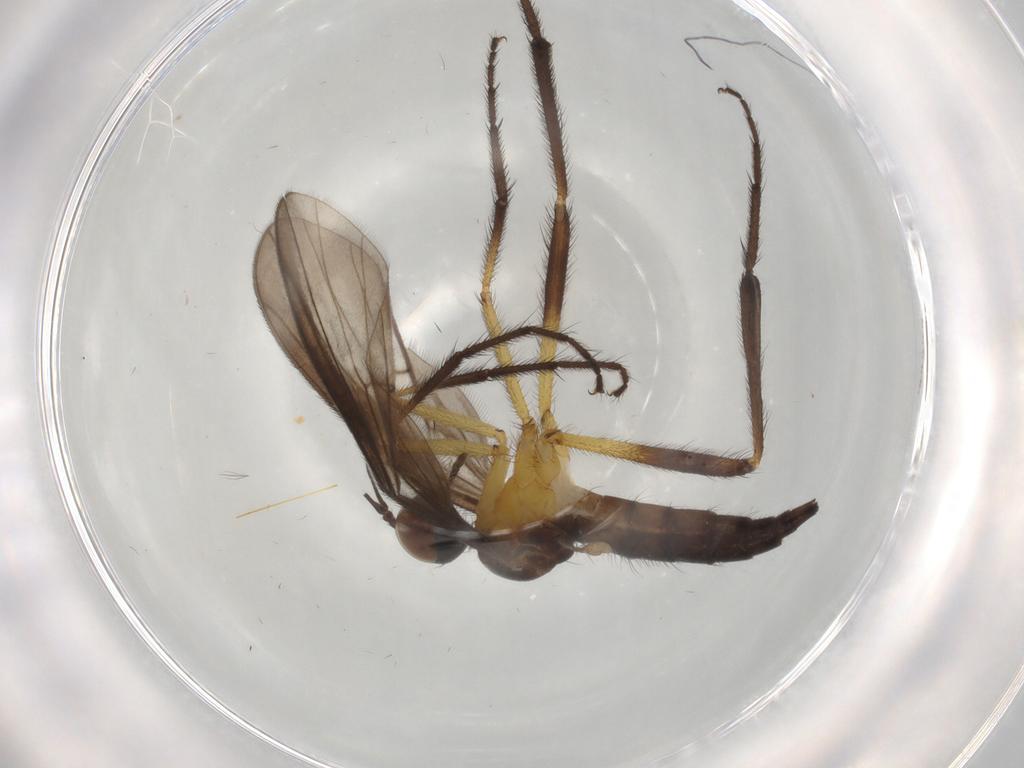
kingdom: Animalia
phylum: Arthropoda
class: Insecta
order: Diptera
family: Empididae
